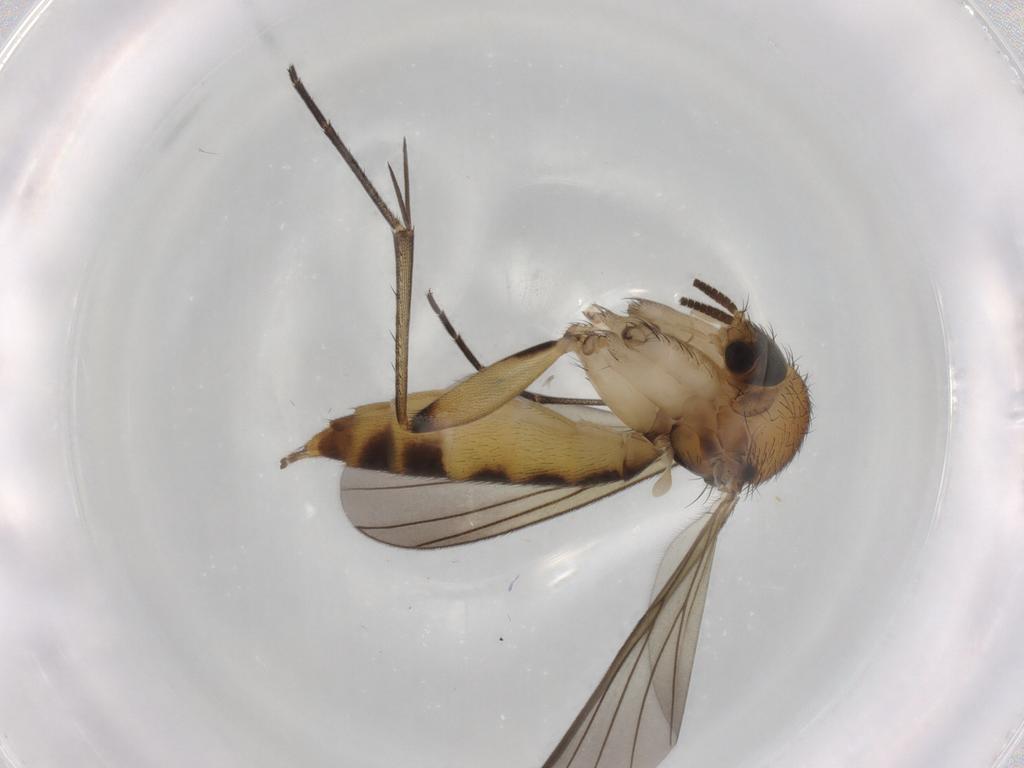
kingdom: Animalia
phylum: Arthropoda
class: Insecta
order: Diptera
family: Mycetophilidae
